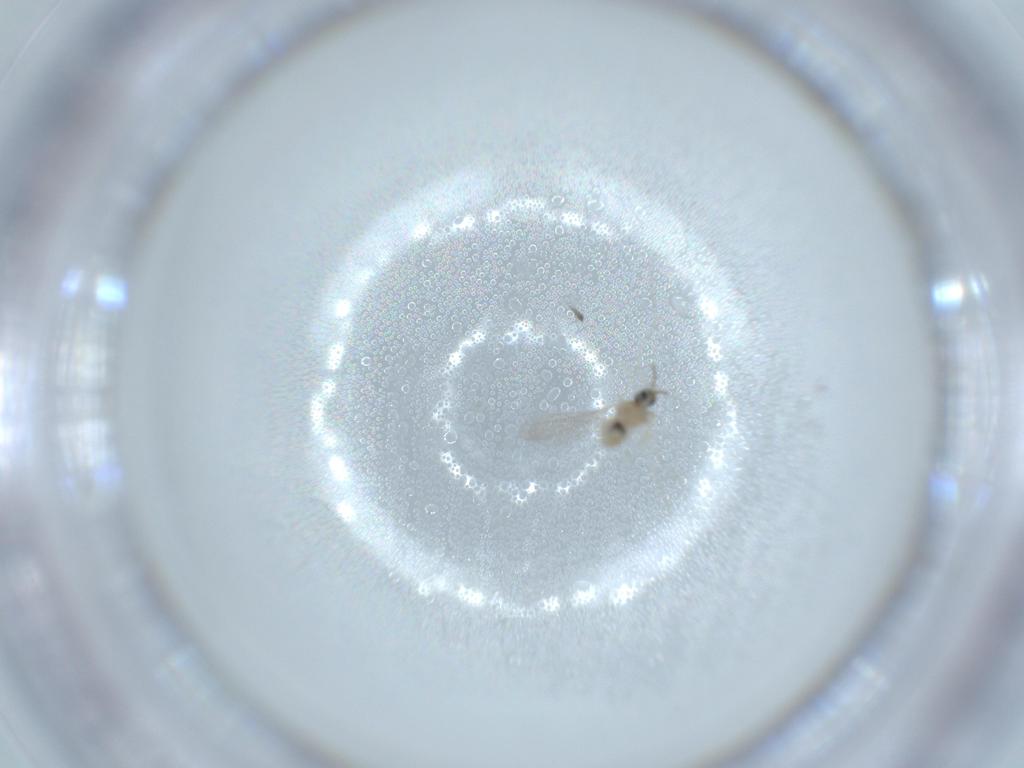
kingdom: Animalia
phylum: Arthropoda
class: Insecta
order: Diptera
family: Cecidomyiidae
